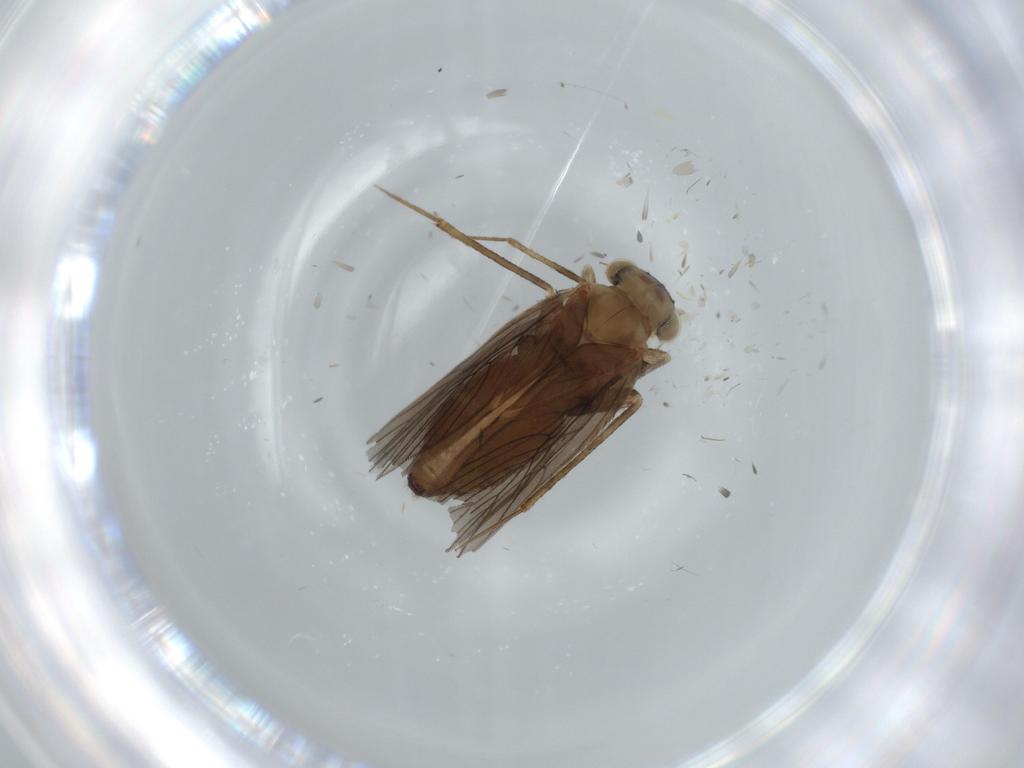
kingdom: Animalia
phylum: Arthropoda
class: Insecta
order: Psocodea
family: Lepidopsocidae
